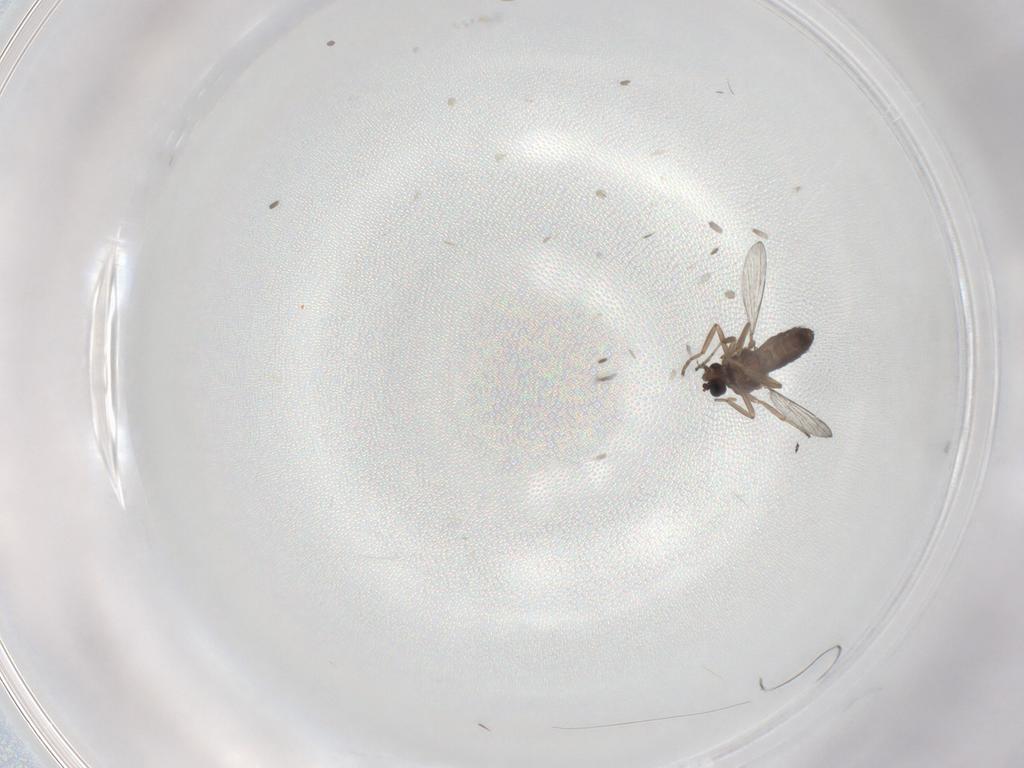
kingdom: Animalia
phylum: Arthropoda
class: Insecta
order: Diptera
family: Ceratopogonidae
